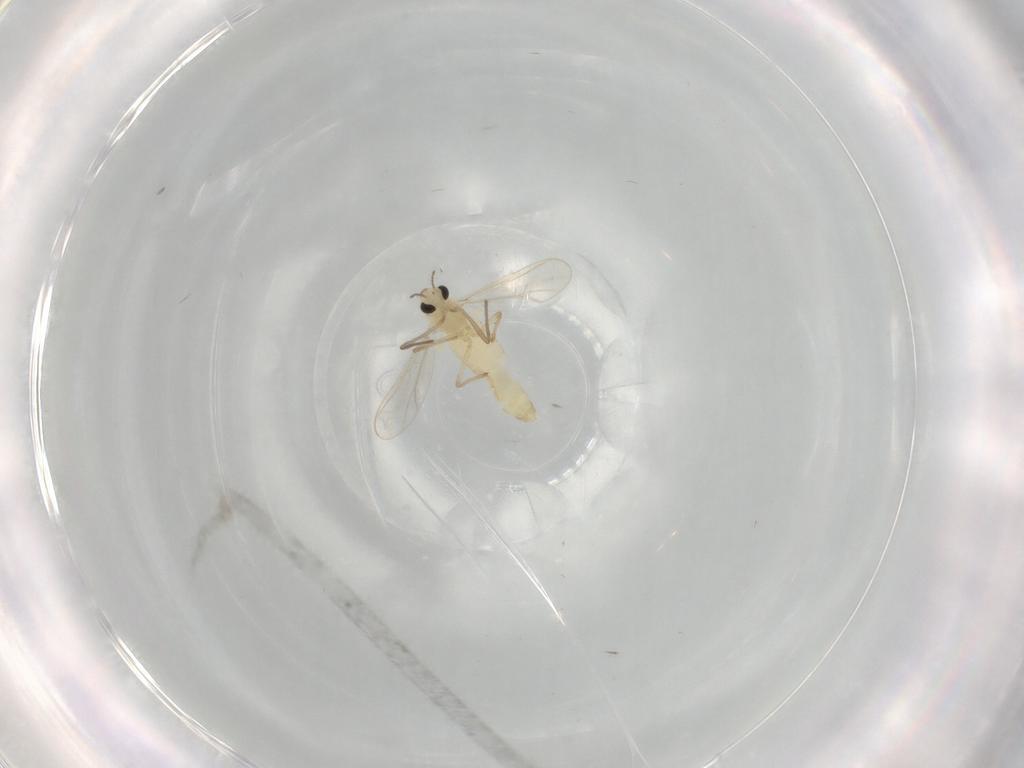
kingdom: Animalia
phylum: Arthropoda
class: Insecta
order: Diptera
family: Chironomidae
